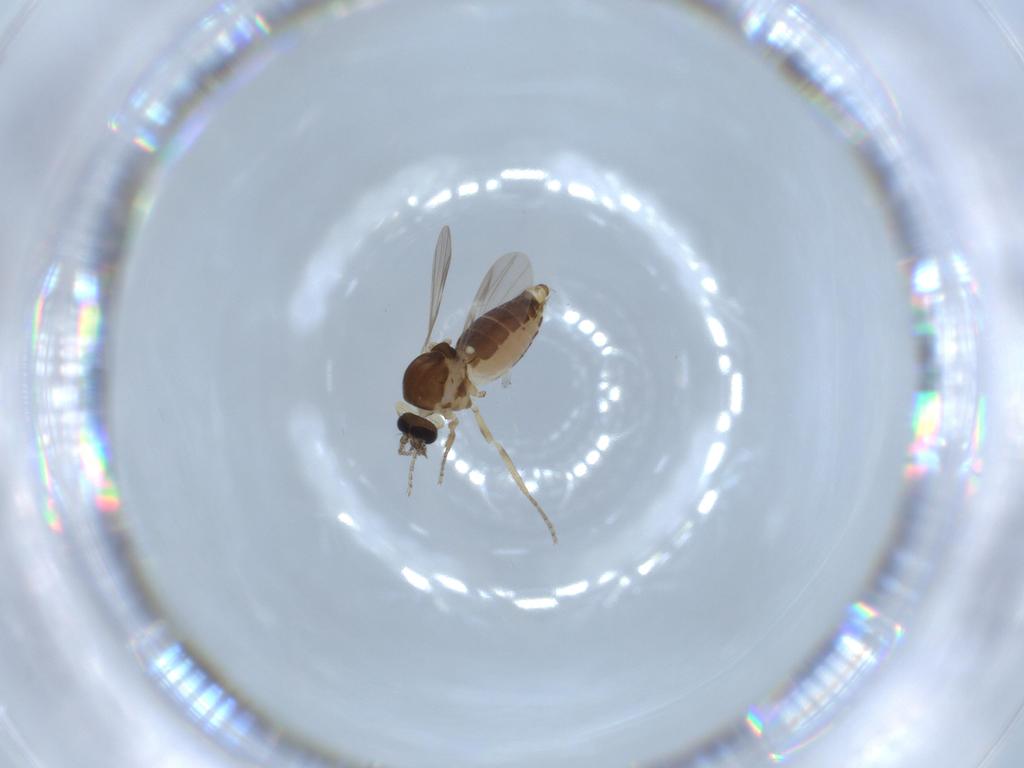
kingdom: Animalia
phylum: Arthropoda
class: Insecta
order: Diptera
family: Ceratopogonidae
